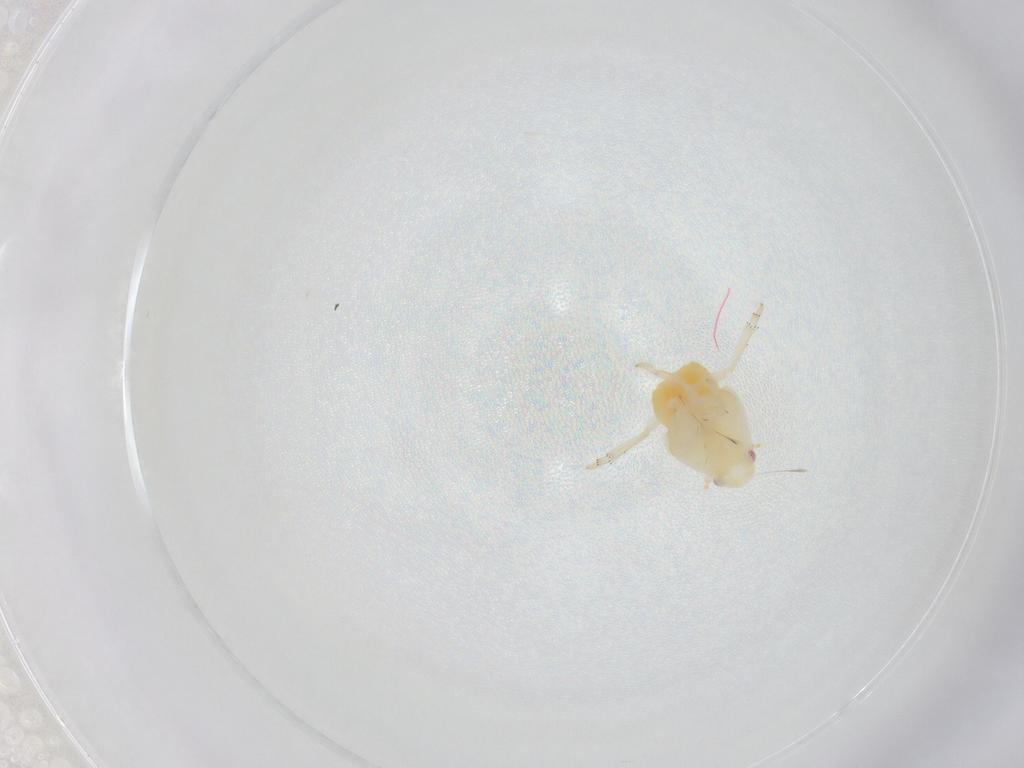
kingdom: Animalia
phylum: Arthropoda
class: Insecta
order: Hemiptera
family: Flatidae
